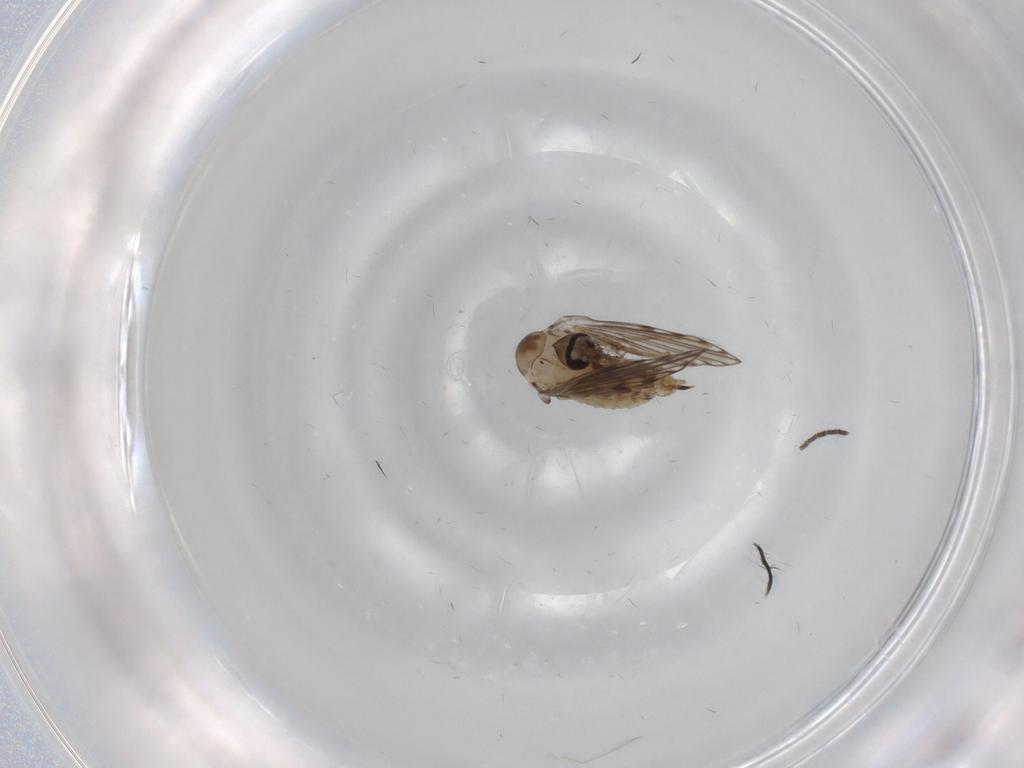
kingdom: Animalia
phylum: Arthropoda
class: Insecta
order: Diptera
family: Psychodidae
